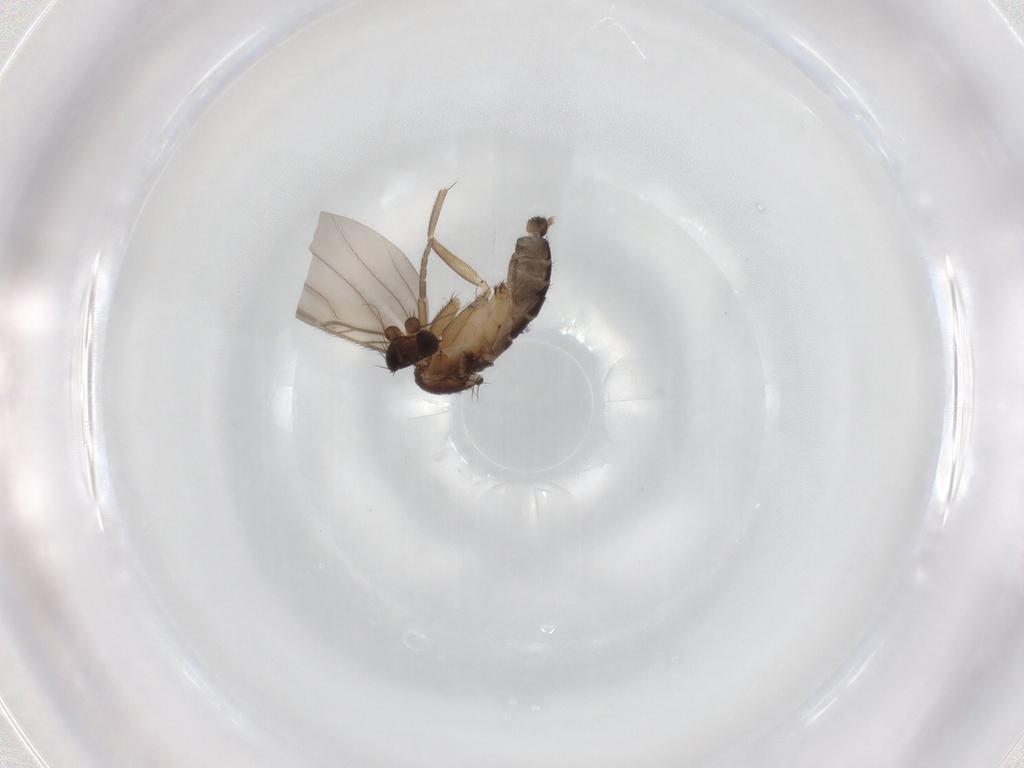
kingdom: Animalia
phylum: Arthropoda
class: Insecta
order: Diptera
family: Phoridae
